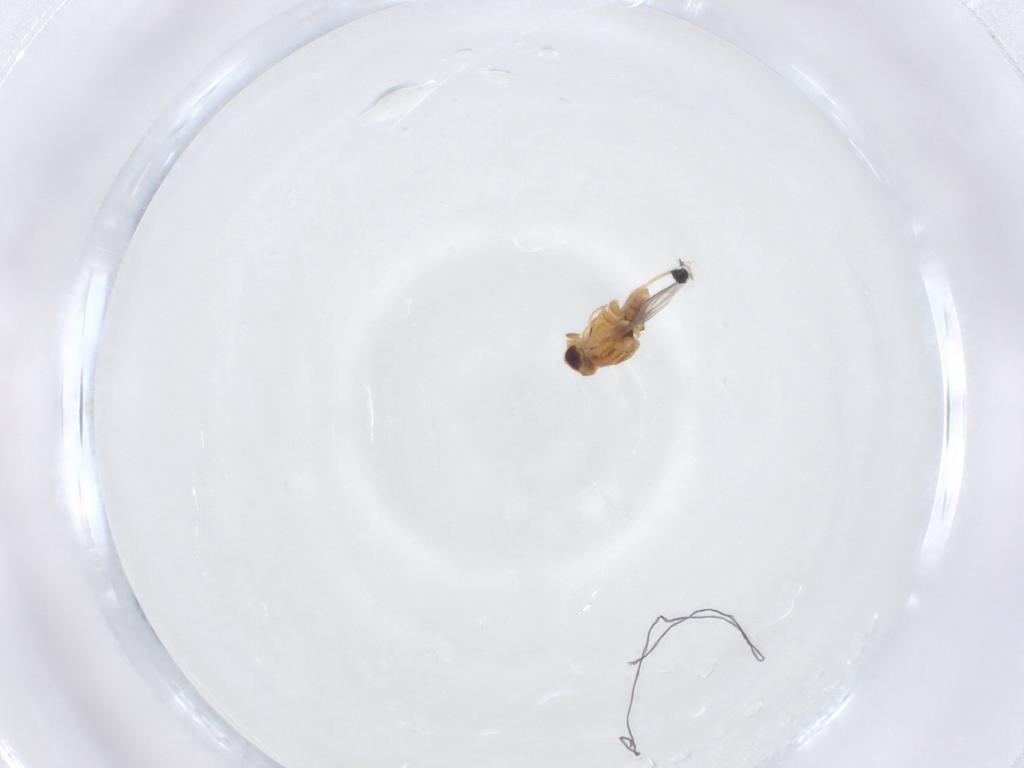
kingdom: Animalia
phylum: Arthropoda
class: Insecta
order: Diptera
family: Chloropidae
